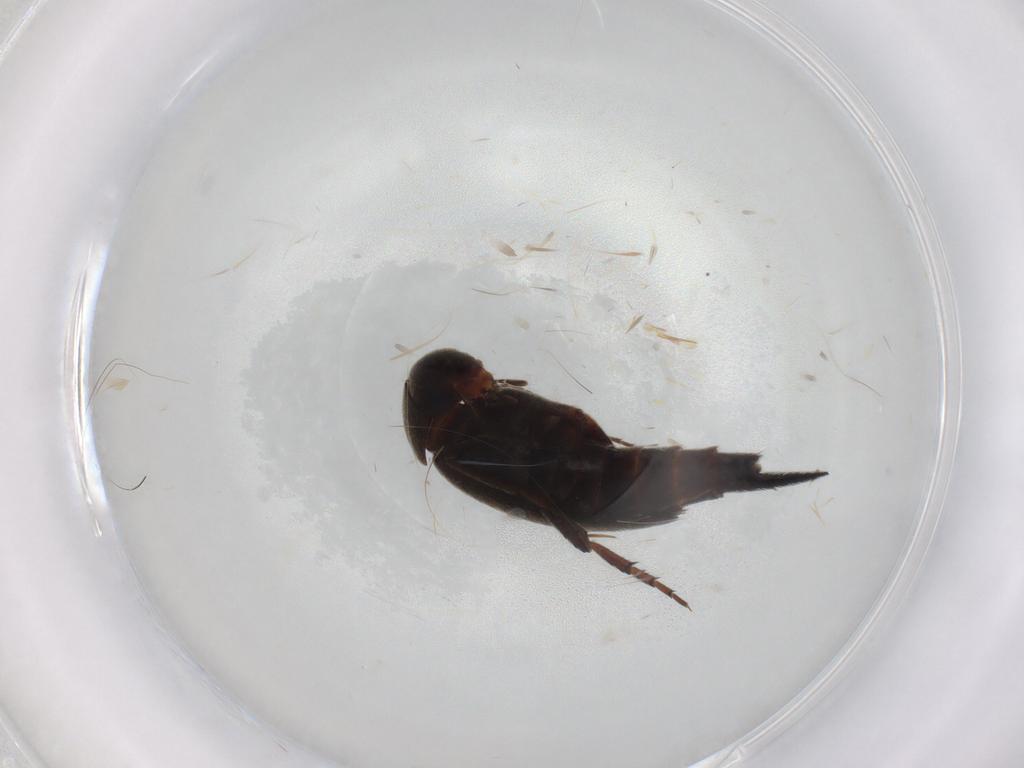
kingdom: Animalia
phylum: Arthropoda
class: Insecta
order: Coleoptera
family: Mordellidae
